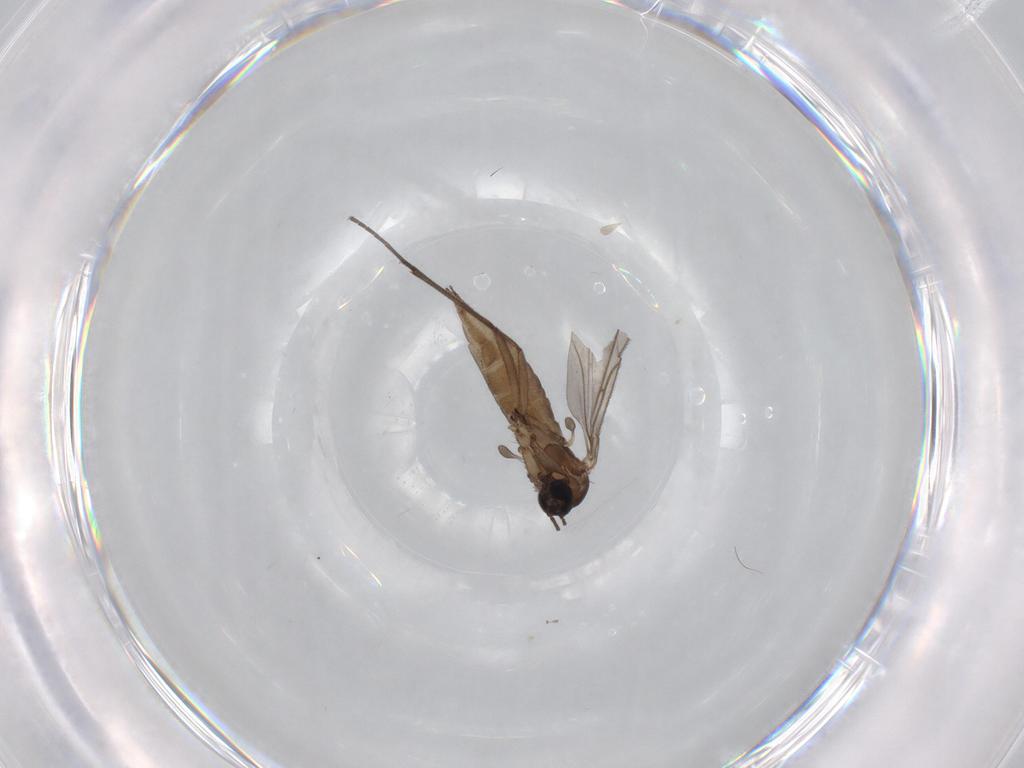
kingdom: Animalia
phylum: Arthropoda
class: Insecta
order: Diptera
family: Sciaridae
